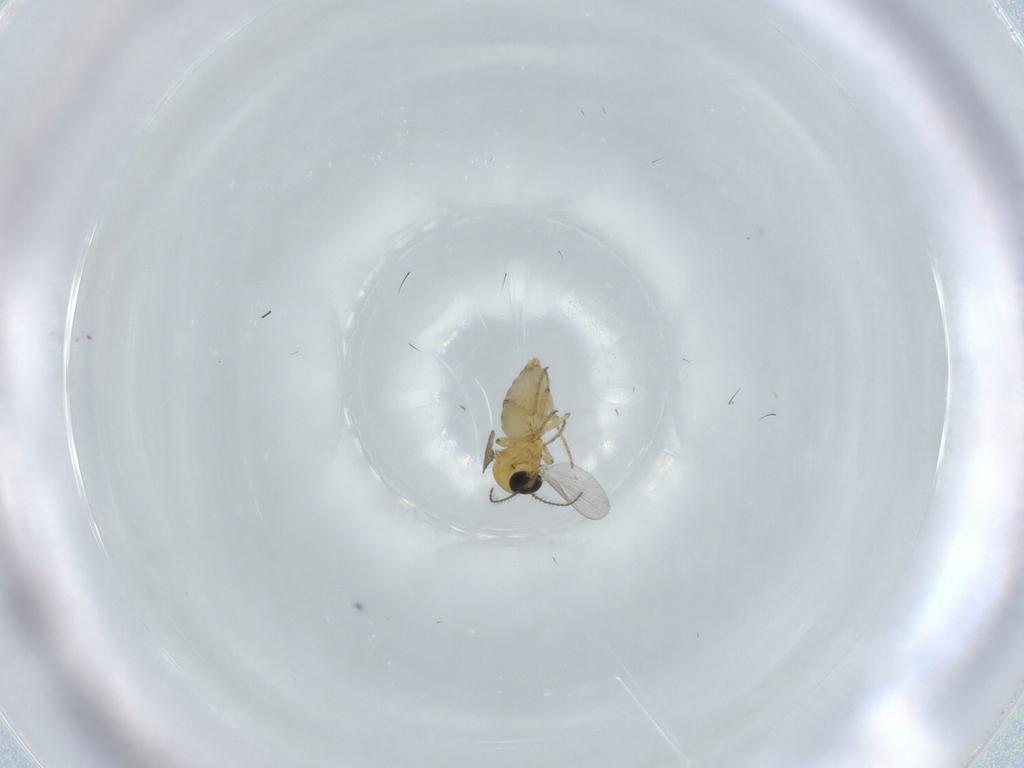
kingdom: Animalia
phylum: Arthropoda
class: Insecta
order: Diptera
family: Ceratopogonidae
